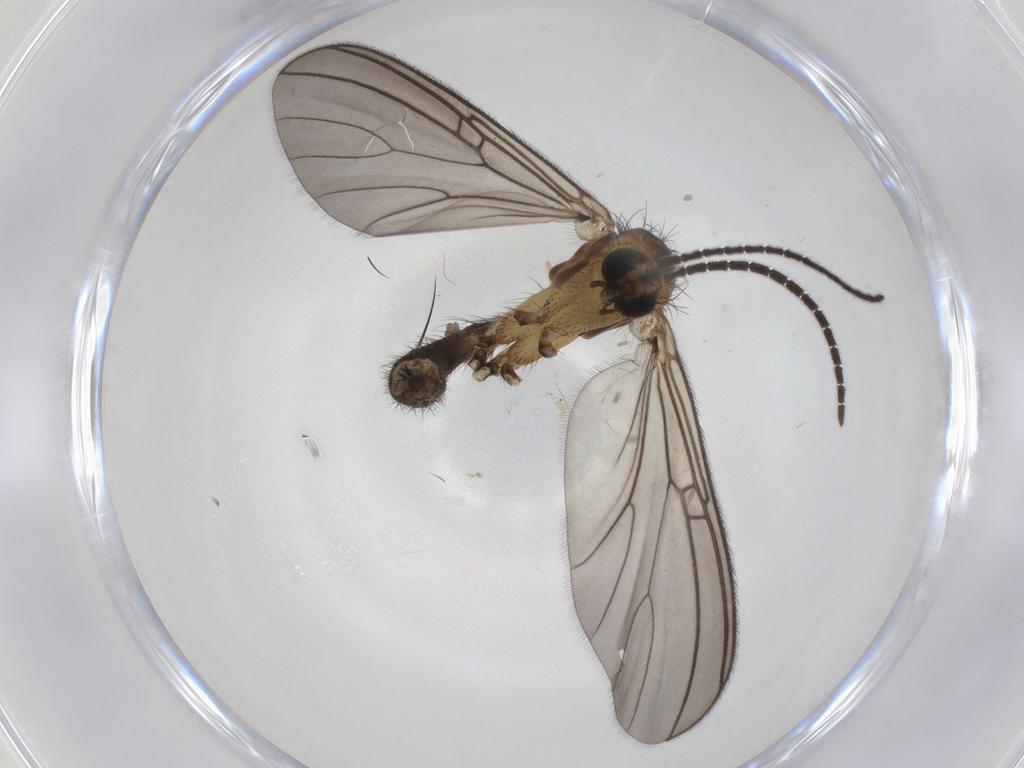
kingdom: Animalia
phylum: Arthropoda
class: Insecta
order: Diptera
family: Mycetophilidae
